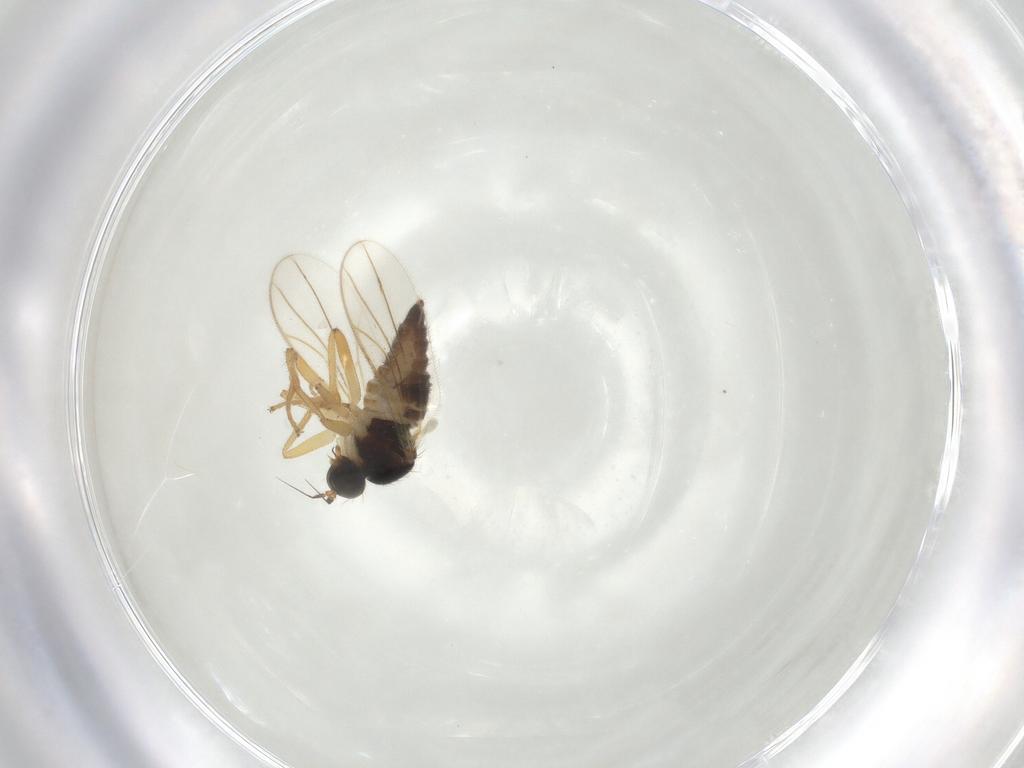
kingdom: Animalia
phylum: Arthropoda
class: Insecta
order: Diptera
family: Hybotidae
